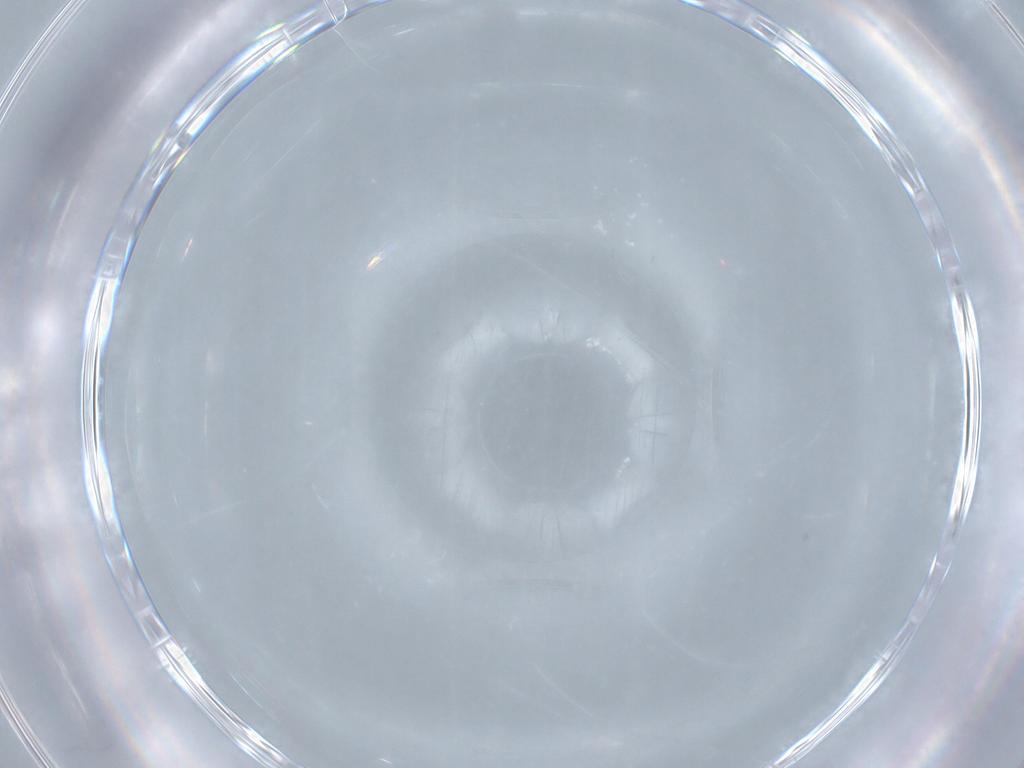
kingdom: Animalia
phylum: Arthropoda
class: Insecta
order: Hemiptera
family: Aleyrodidae
